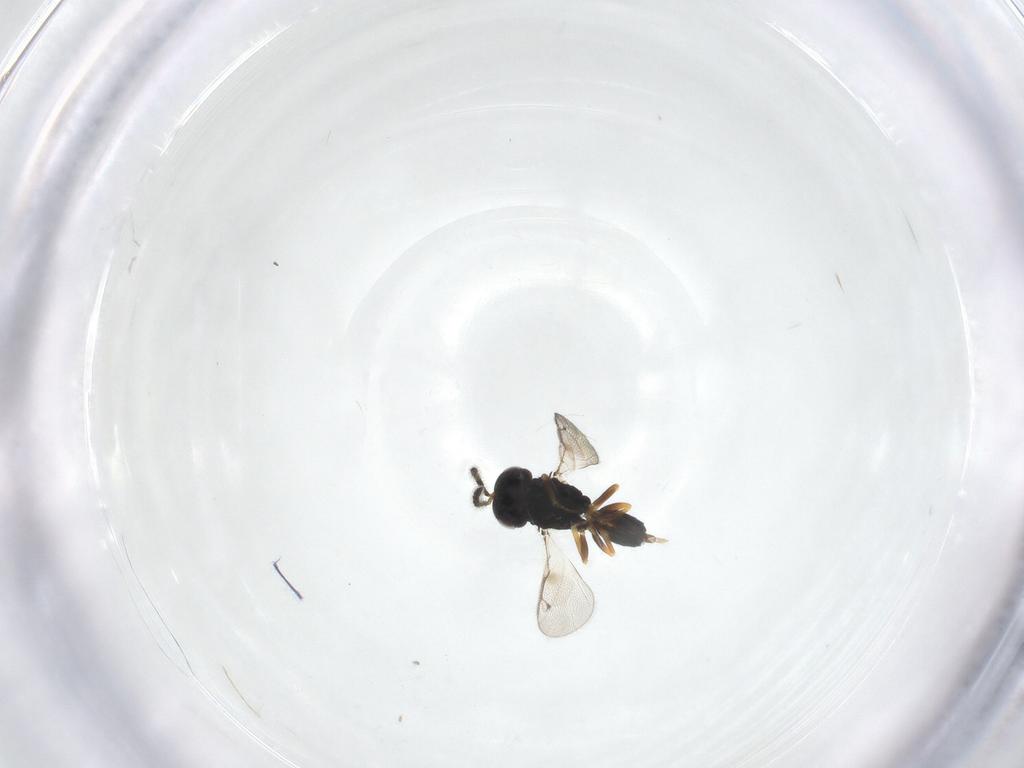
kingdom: Animalia
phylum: Arthropoda
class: Insecta
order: Hymenoptera
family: Pteromalidae
